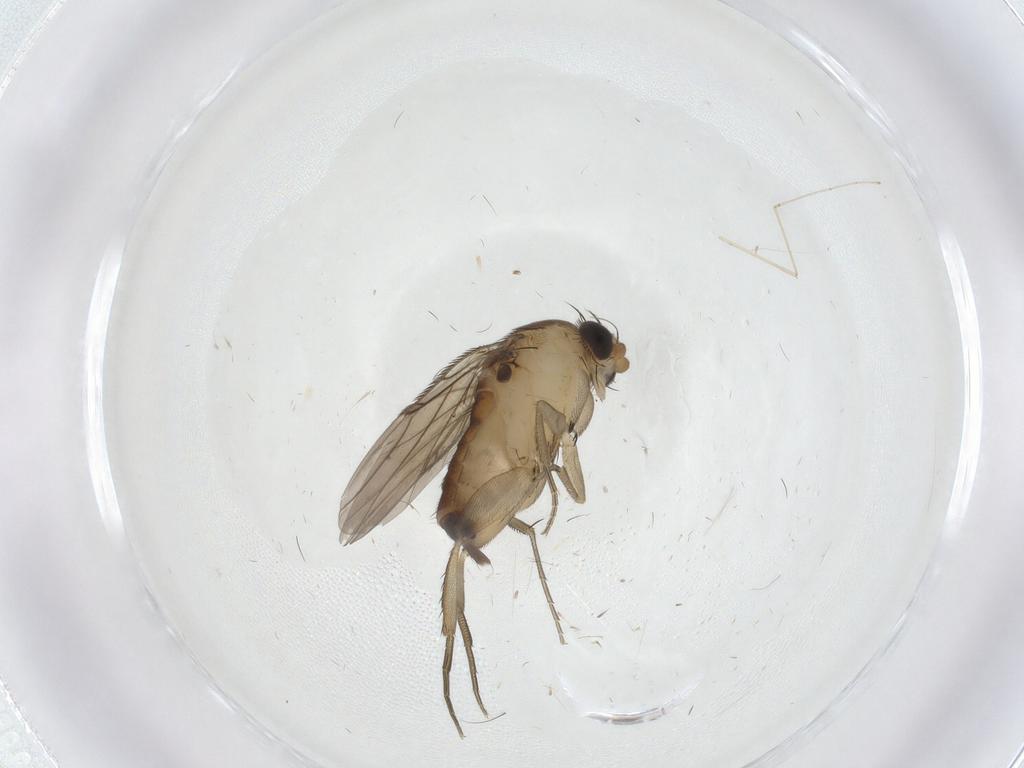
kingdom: Animalia
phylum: Arthropoda
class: Insecta
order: Diptera
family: Phoridae
